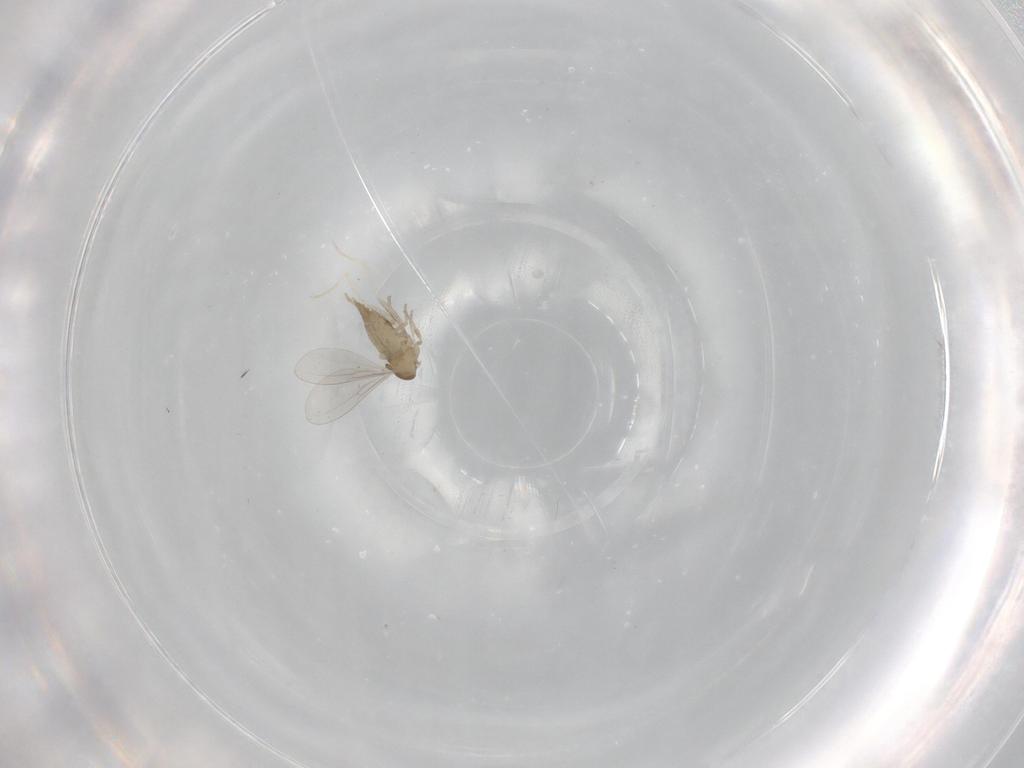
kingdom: Animalia
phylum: Arthropoda
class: Insecta
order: Diptera
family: Cecidomyiidae
